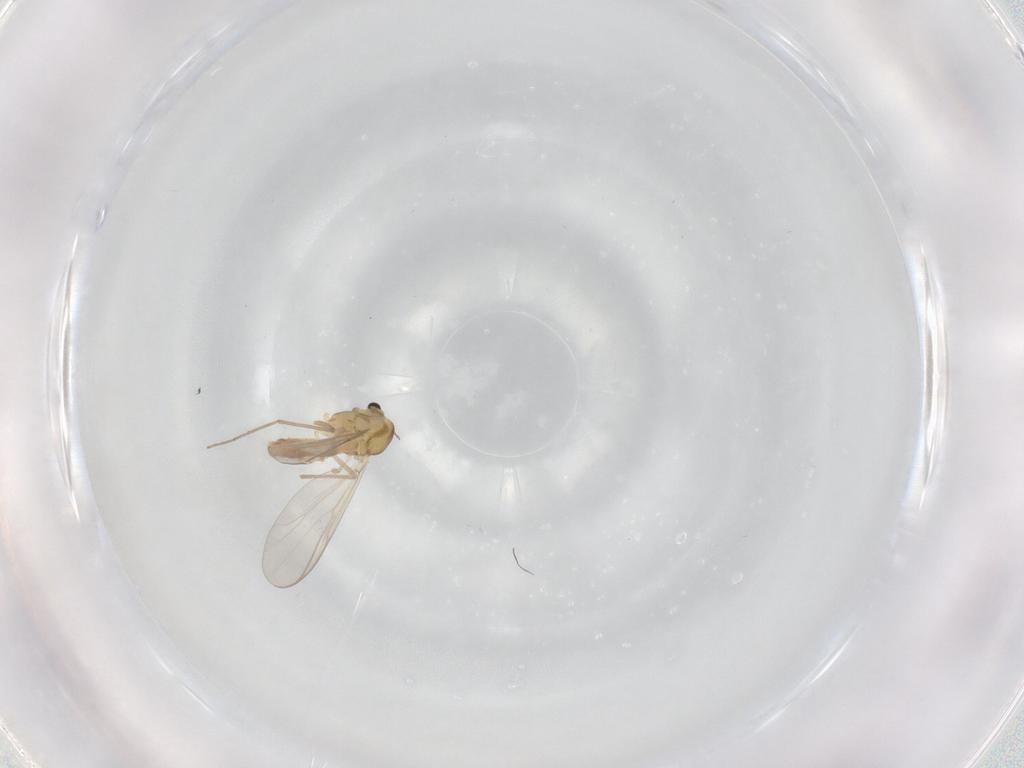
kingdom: Animalia
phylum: Arthropoda
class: Insecta
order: Diptera
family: Chironomidae
